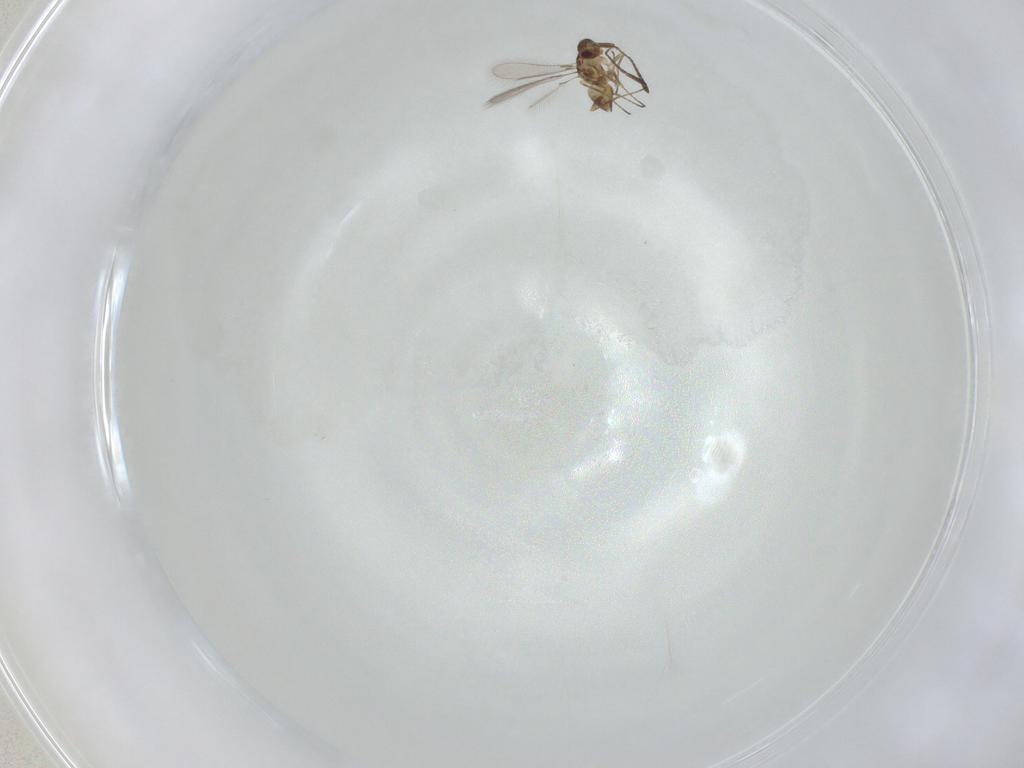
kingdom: Animalia
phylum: Arthropoda
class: Insecta
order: Hymenoptera
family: Mymaridae
